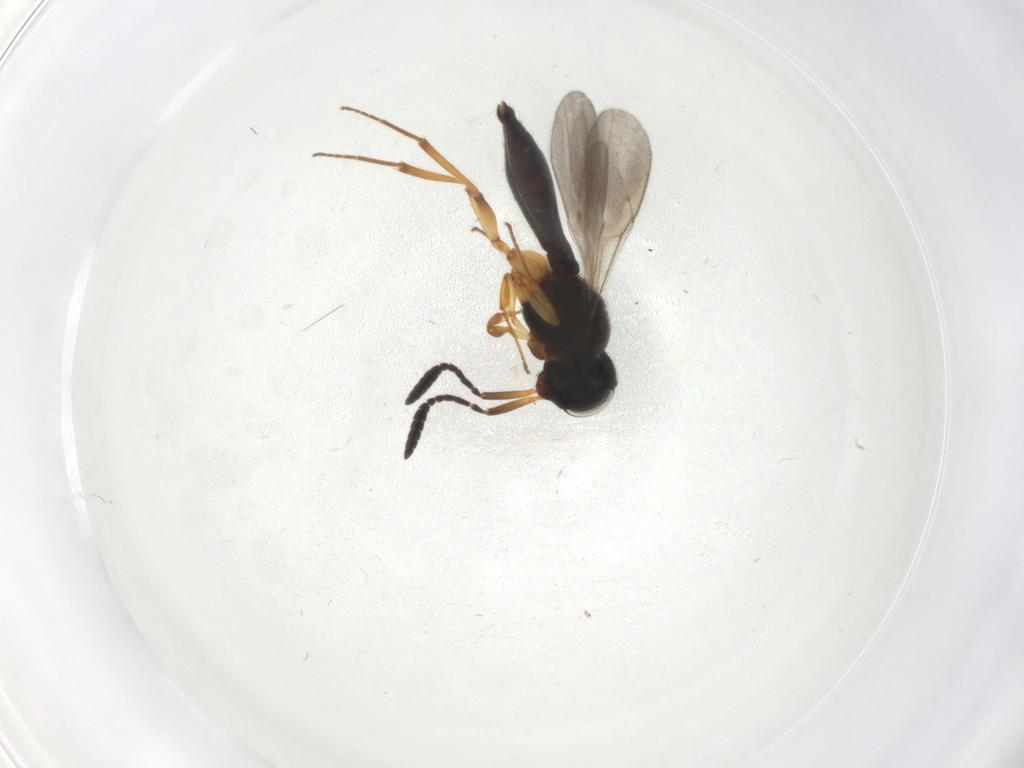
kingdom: Animalia
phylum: Arthropoda
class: Insecta
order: Hymenoptera
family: Scelionidae
